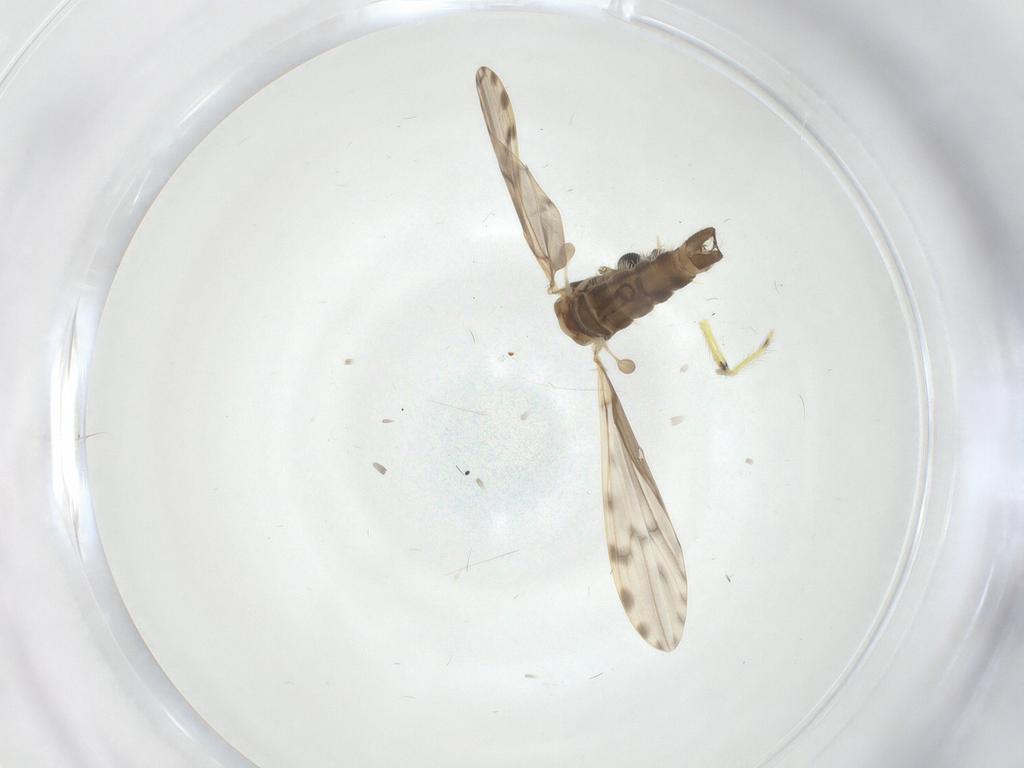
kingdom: Animalia
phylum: Arthropoda
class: Insecta
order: Diptera
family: Limoniidae
